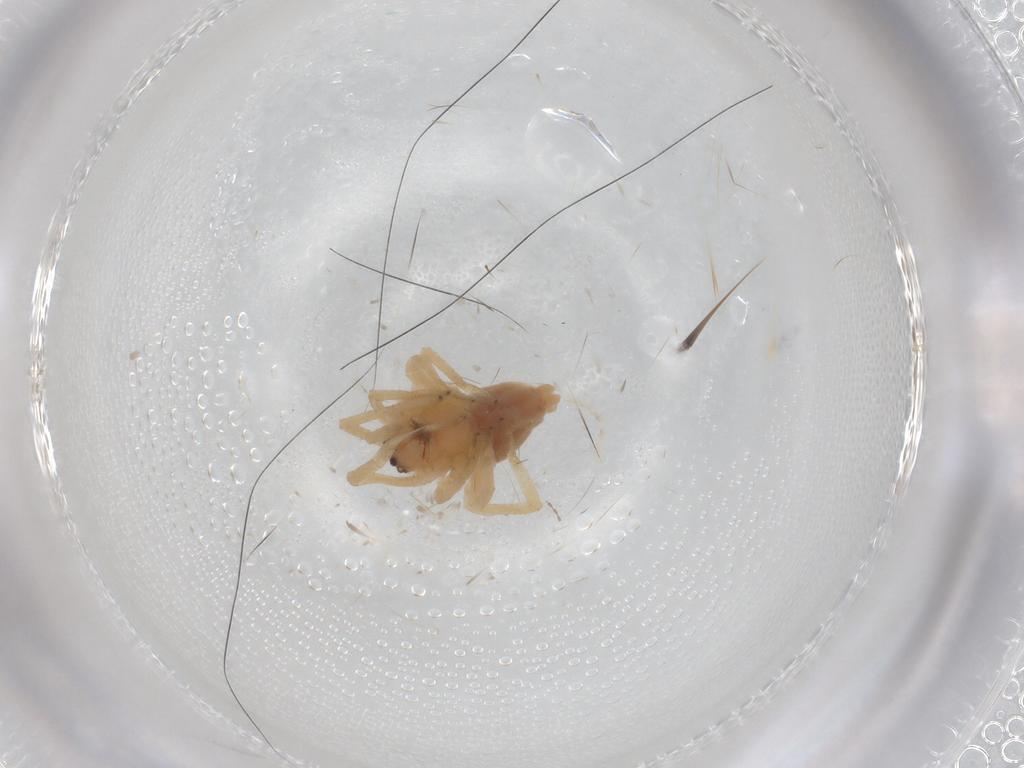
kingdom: Animalia
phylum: Arthropoda
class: Arachnida
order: Araneae
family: Cheiracanthiidae
